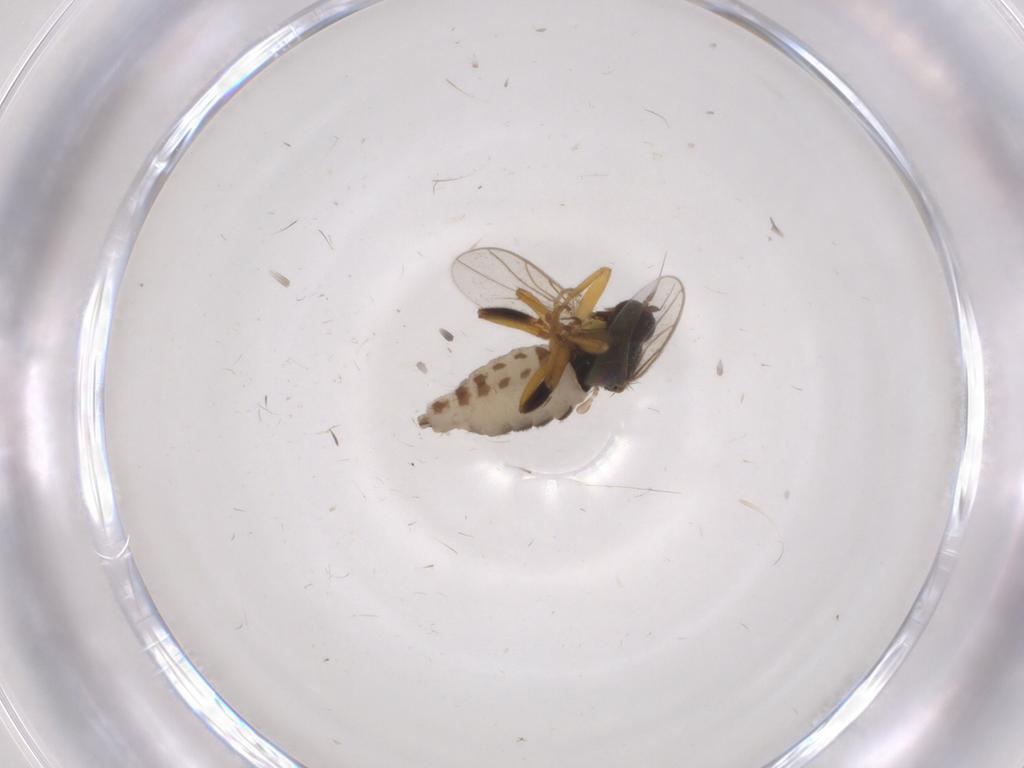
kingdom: Animalia
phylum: Arthropoda
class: Insecta
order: Diptera
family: Hybotidae
